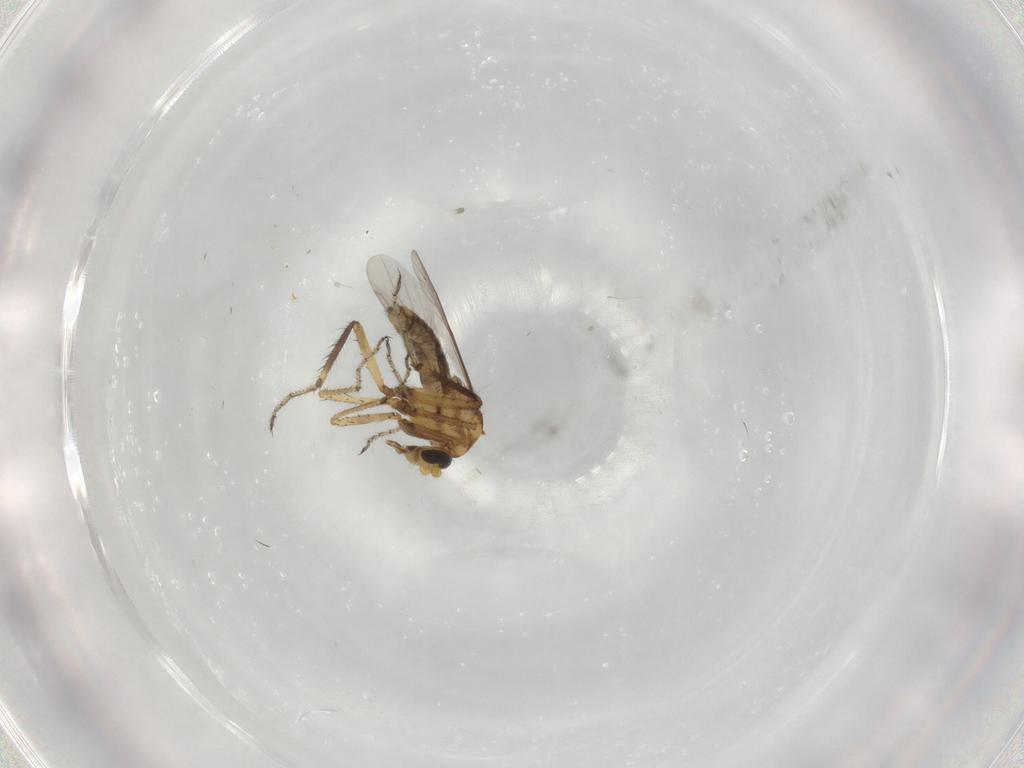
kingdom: Animalia
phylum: Arthropoda
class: Insecta
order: Diptera
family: Ceratopogonidae
